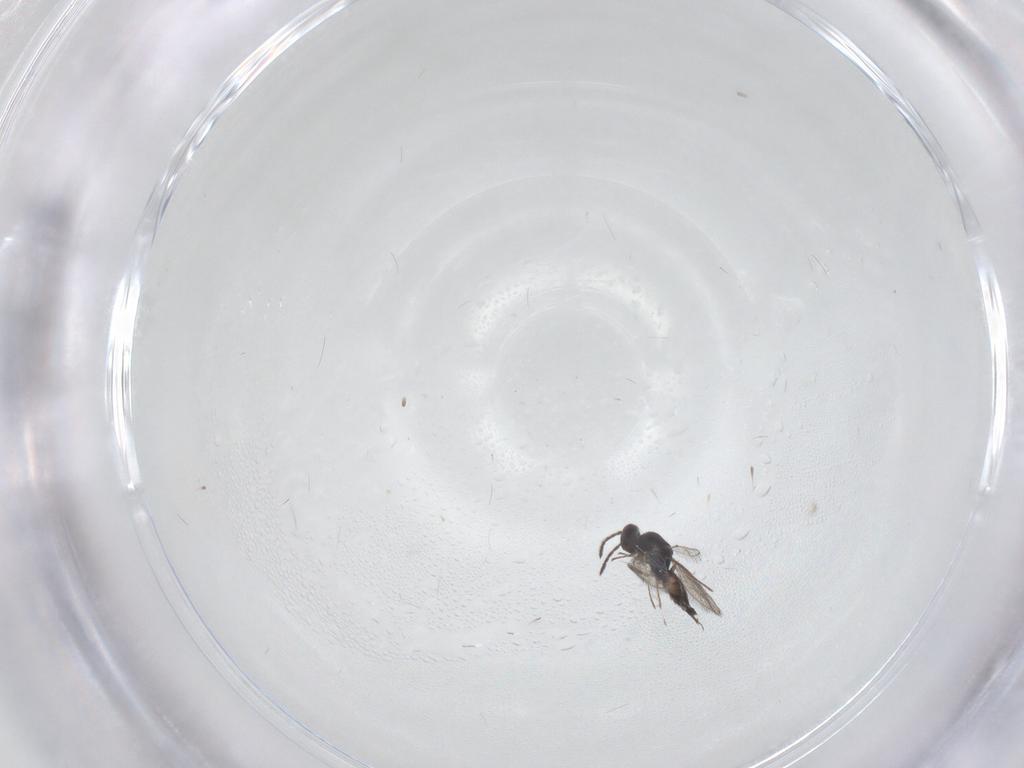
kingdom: Animalia
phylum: Arthropoda
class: Insecta
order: Hymenoptera
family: Eulophidae
